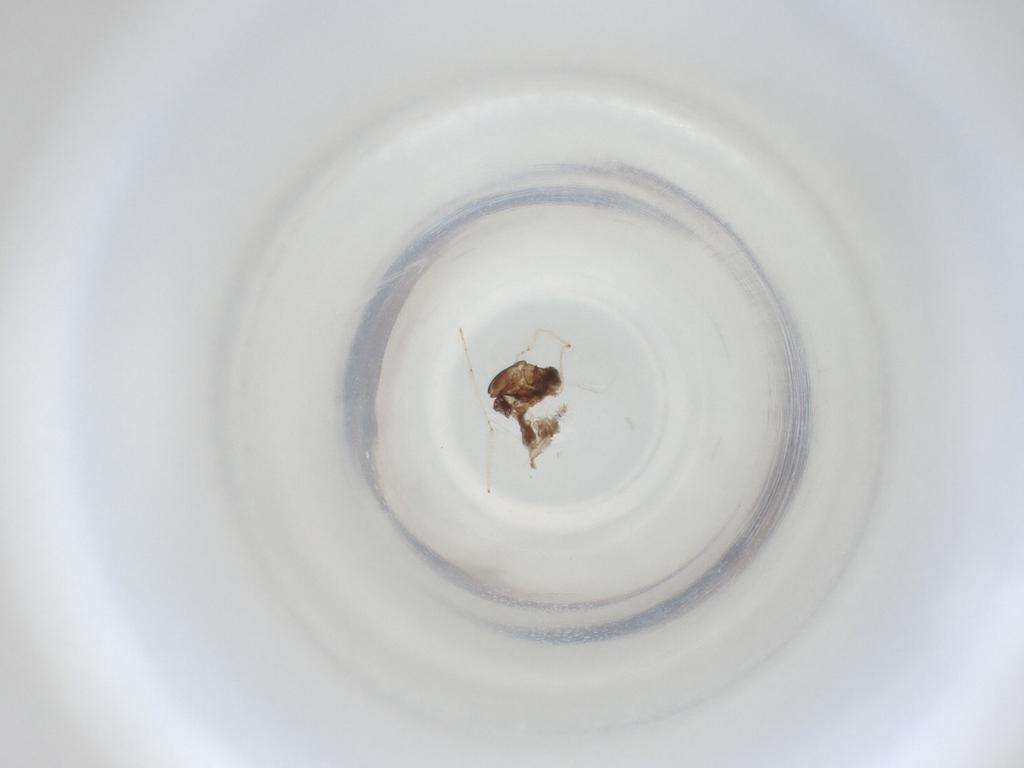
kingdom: Animalia
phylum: Arthropoda
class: Insecta
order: Diptera
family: Cecidomyiidae
